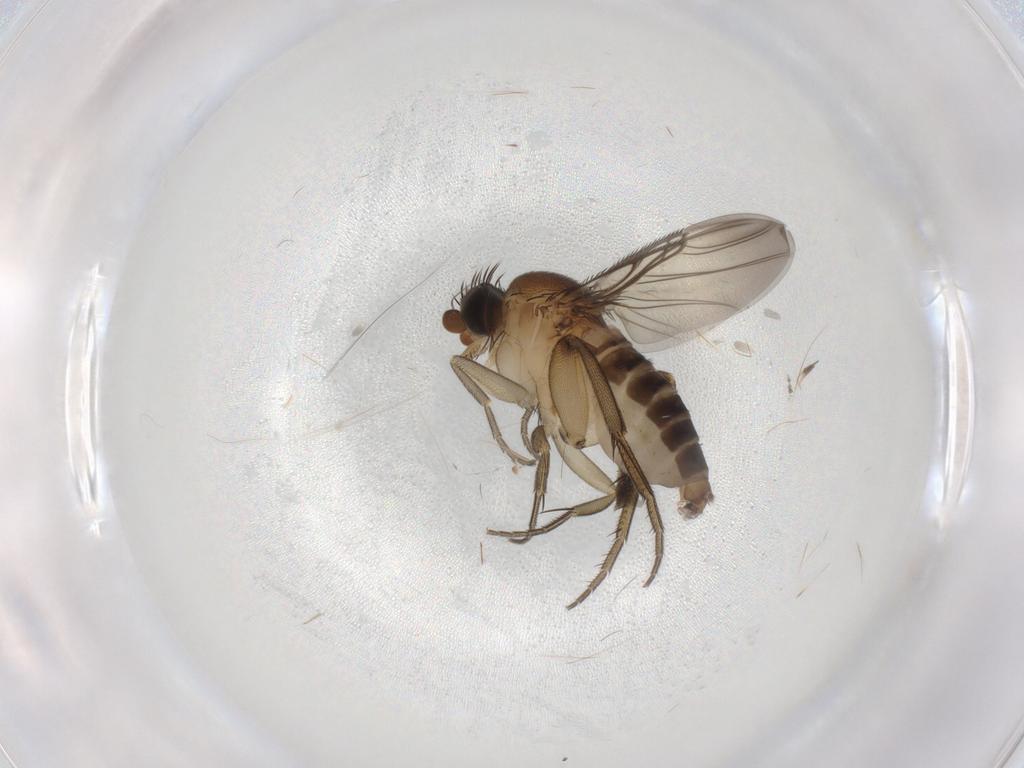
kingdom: Animalia
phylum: Arthropoda
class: Insecta
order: Diptera
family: Phoridae
